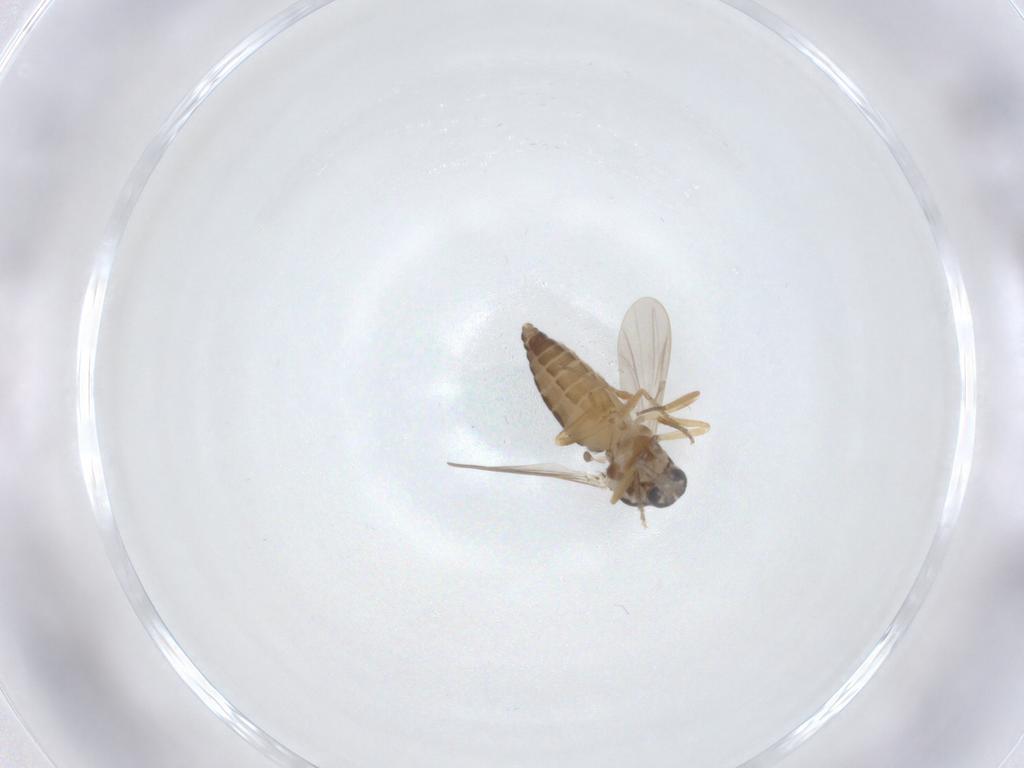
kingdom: Animalia
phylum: Arthropoda
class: Insecta
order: Diptera
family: Ceratopogonidae
